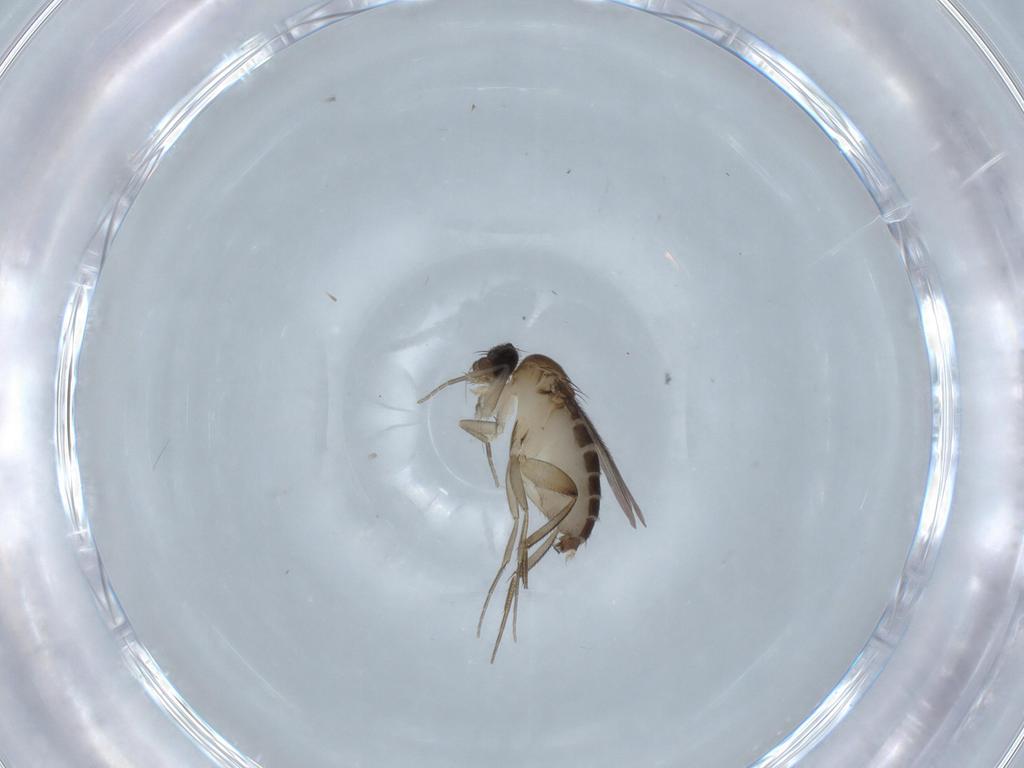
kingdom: Animalia
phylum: Arthropoda
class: Insecta
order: Diptera
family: Phoridae
